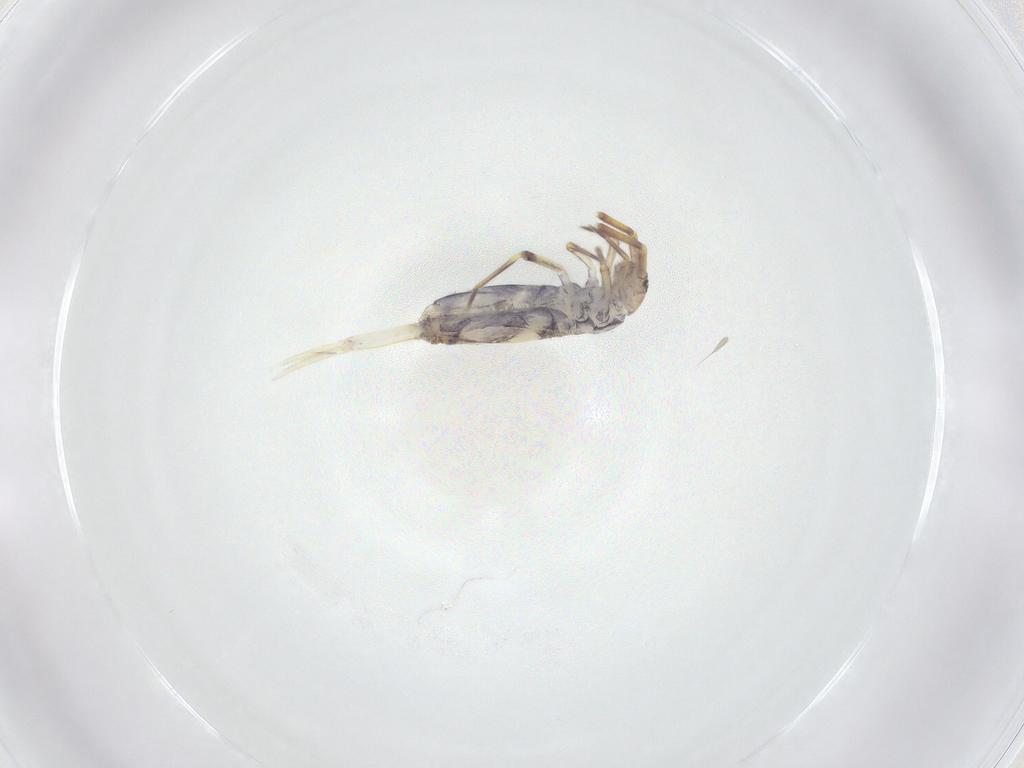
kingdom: Animalia
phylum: Arthropoda
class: Collembola
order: Entomobryomorpha
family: Entomobryidae
